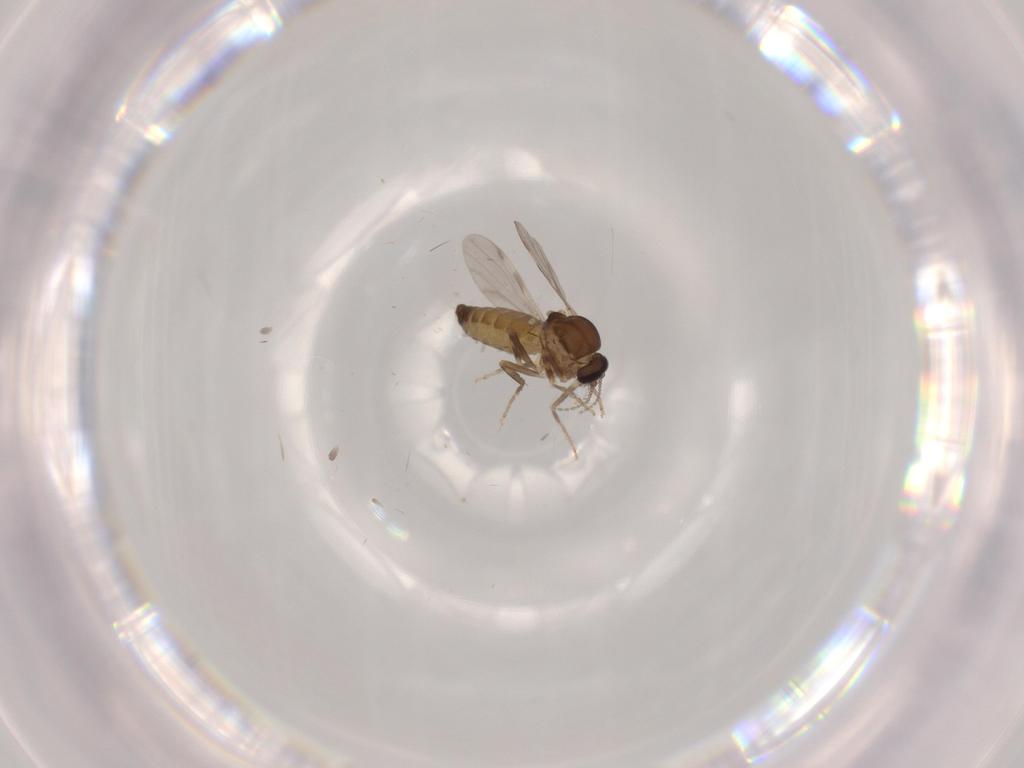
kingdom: Animalia
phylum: Arthropoda
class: Insecta
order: Diptera
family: Ceratopogonidae
